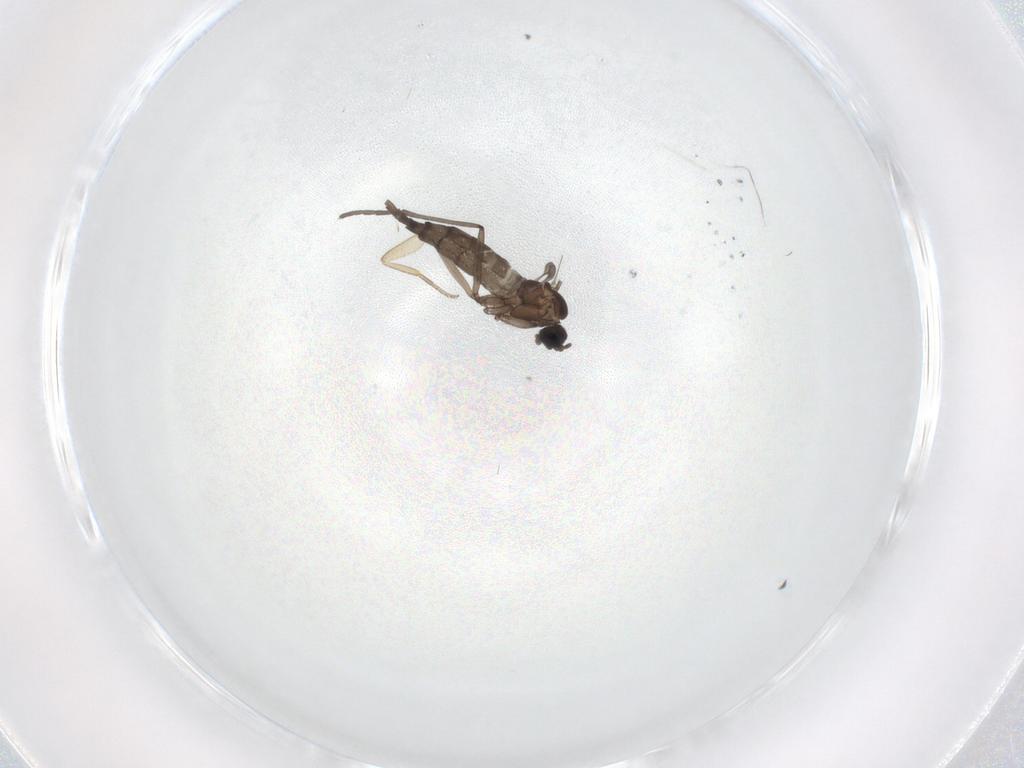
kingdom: Animalia
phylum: Arthropoda
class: Insecta
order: Diptera
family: Phoridae
